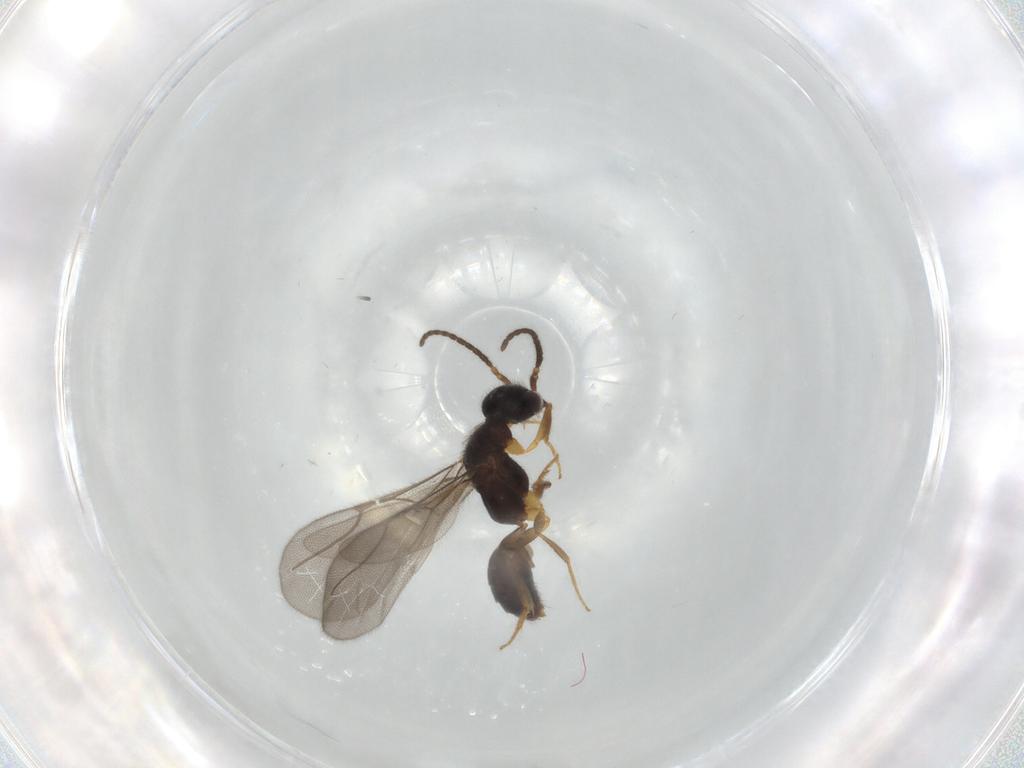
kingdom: Animalia
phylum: Arthropoda
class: Insecta
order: Hymenoptera
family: Bethylidae
